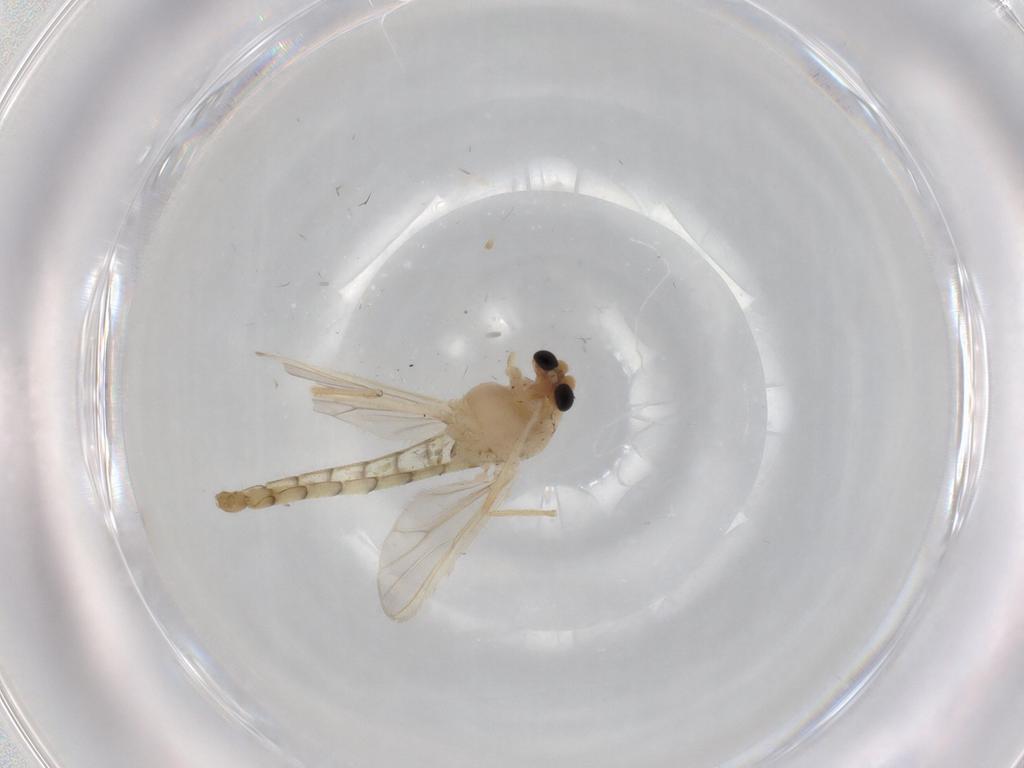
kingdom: Animalia
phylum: Arthropoda
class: Insecta
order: Diptera
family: Chironomidae
